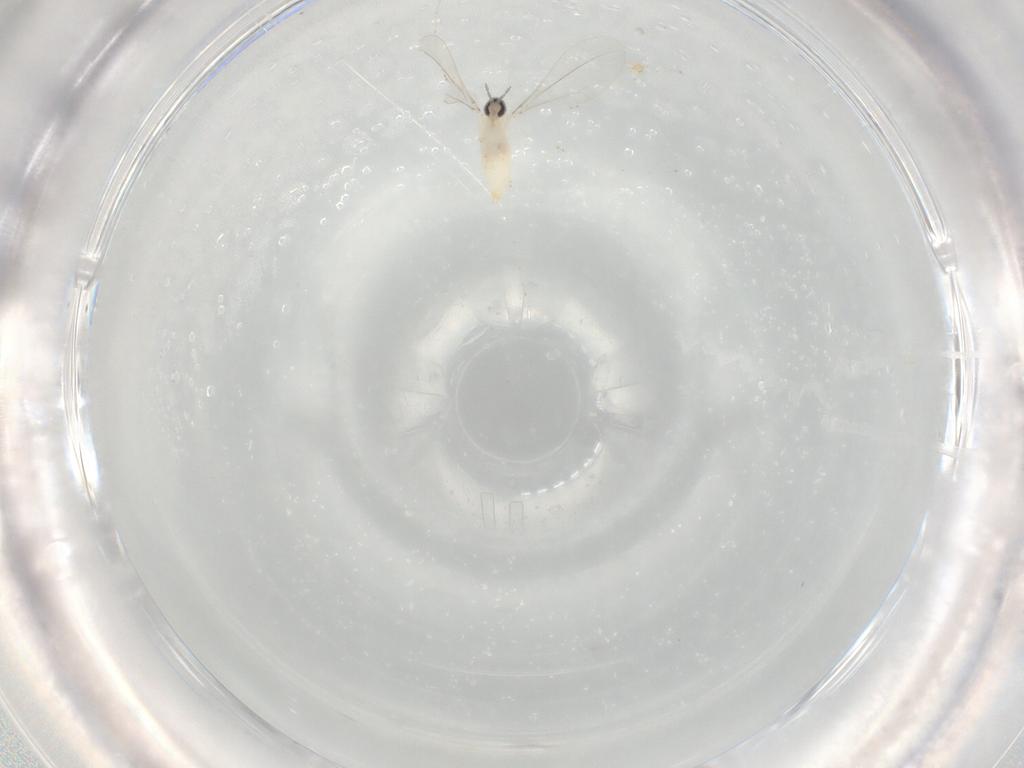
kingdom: Animalia
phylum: Arthropoda
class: Insecta
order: Diptera
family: Cecidomyiidae
